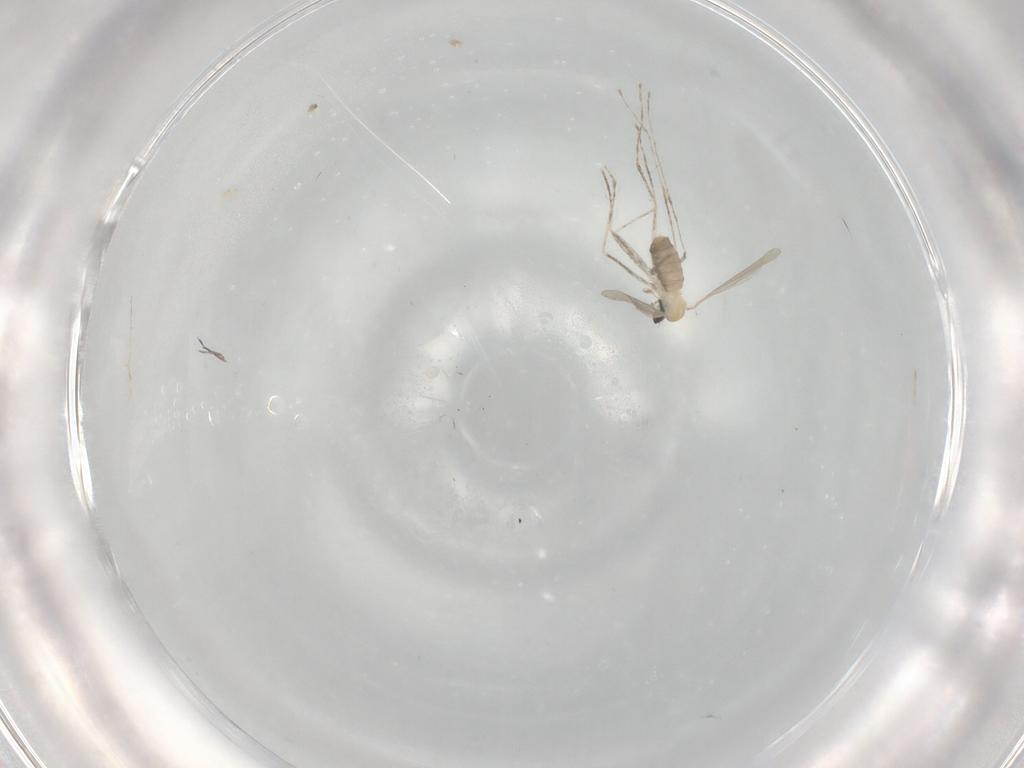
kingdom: Animalia
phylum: Arthropoda
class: Insecta
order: Diptera
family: Cecidomyiidae
